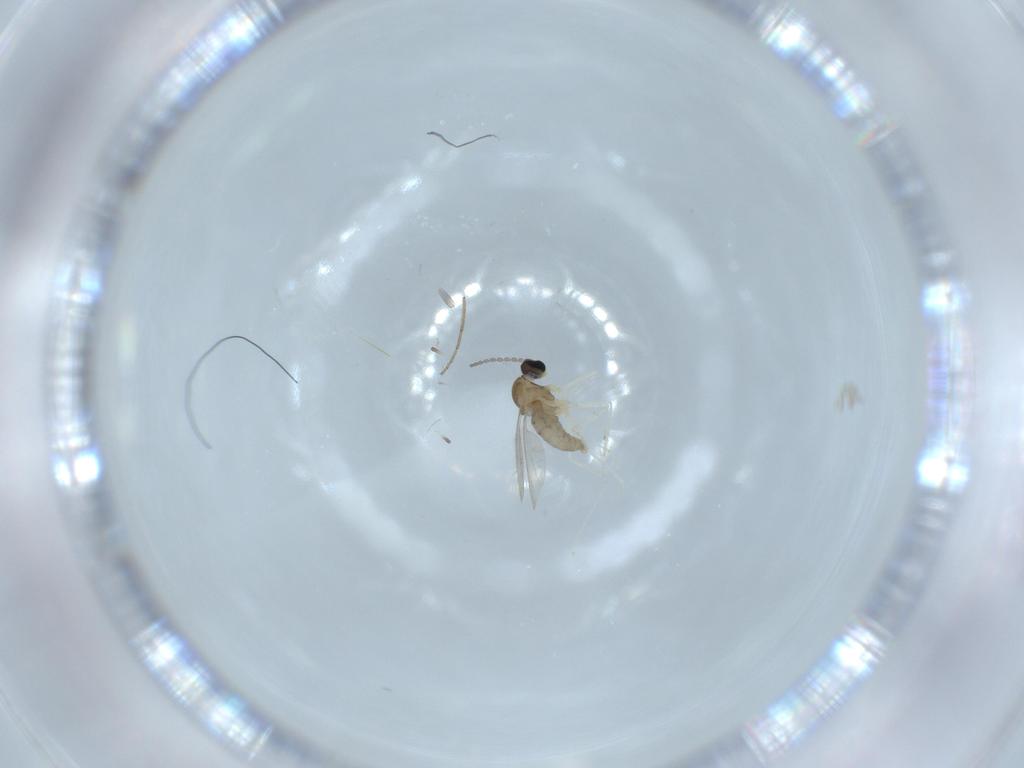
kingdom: Animalia
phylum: Arthropoda
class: Insecta
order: Diptera
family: Cecidomyiidae
